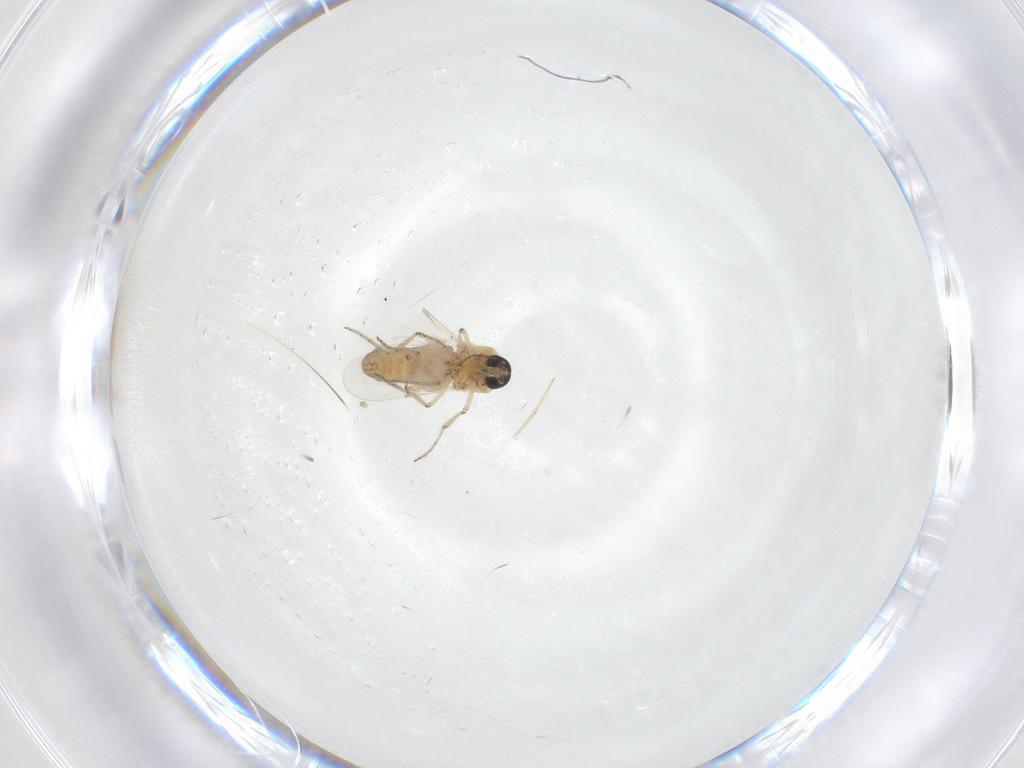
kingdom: Animalia
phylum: Arthropoda
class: Insecta
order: Diptera
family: Ceratopogonidae
